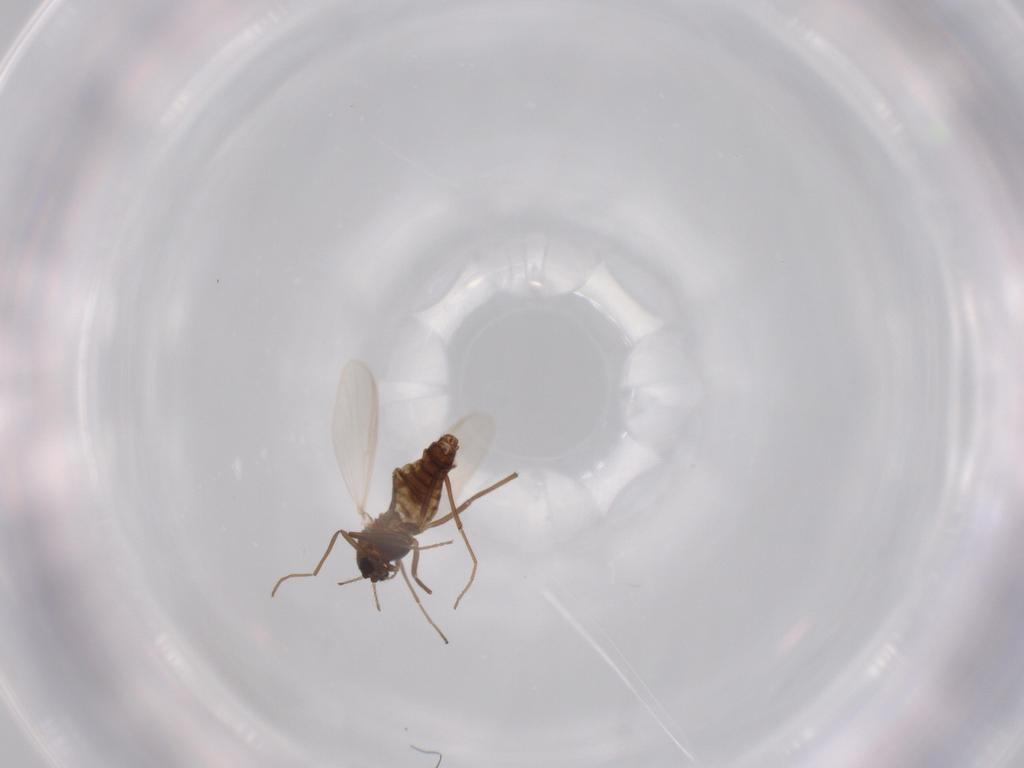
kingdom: Animalia
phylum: Arthropoda
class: Insecta
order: Diptera
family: Chironomidae
